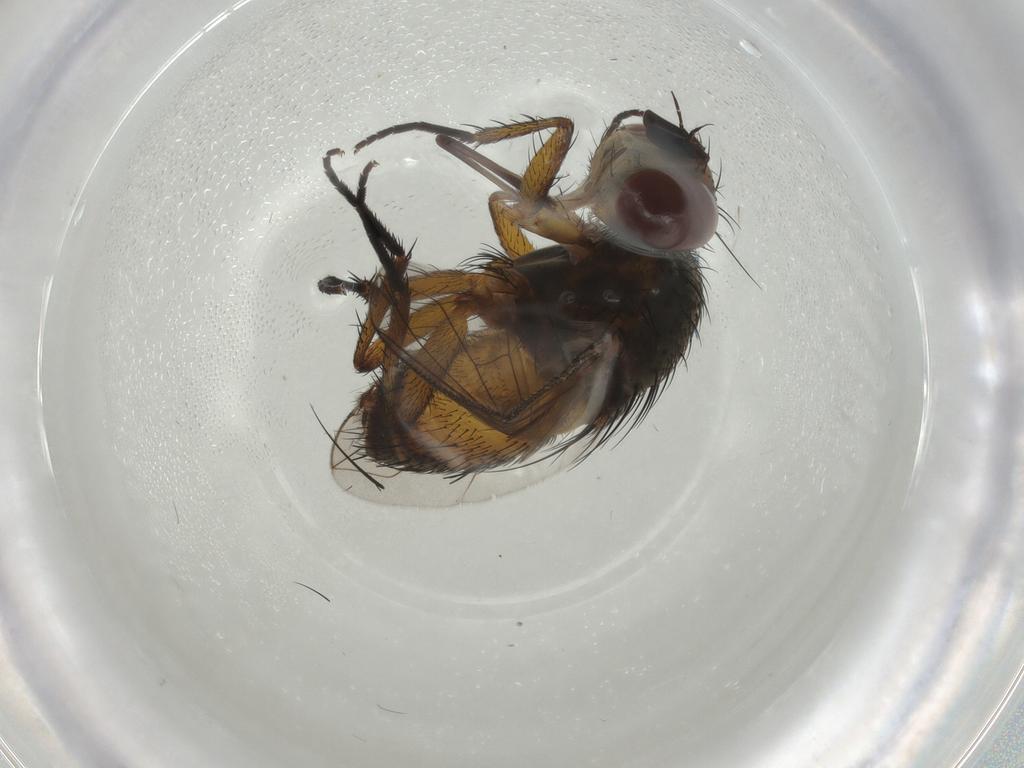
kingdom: Animalia
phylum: Arthropoda
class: Insecta
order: Diptera
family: Tachinidae
